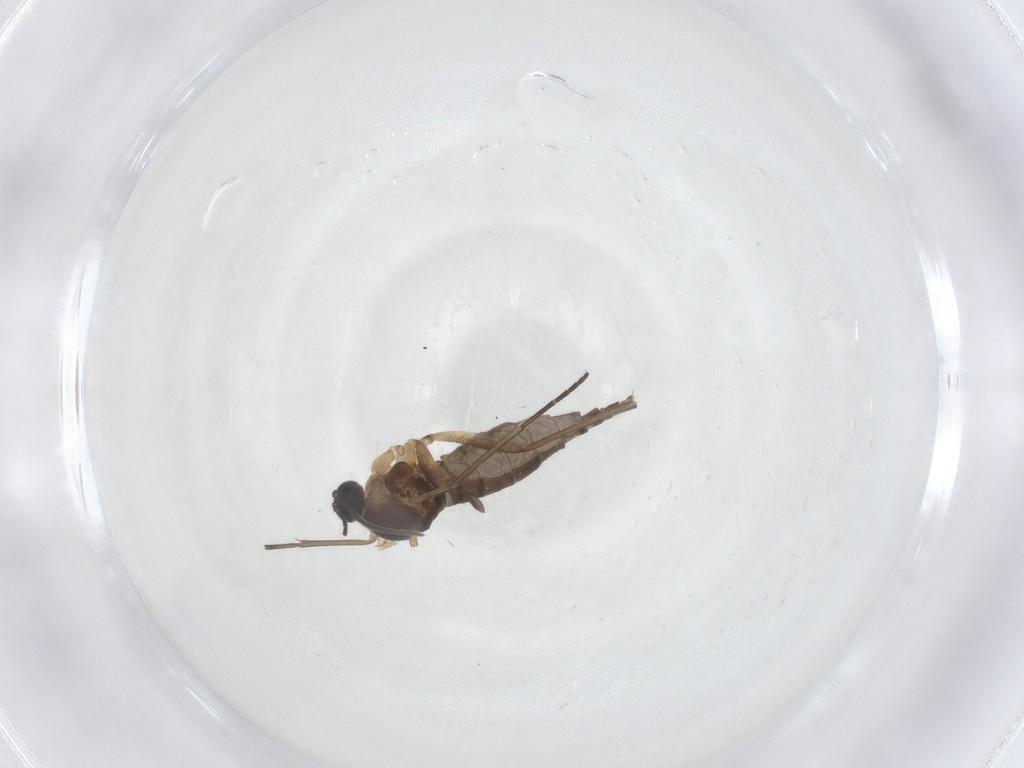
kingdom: Animalia
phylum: Arthropoda
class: Insecta
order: Diptera
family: Sciaridae
